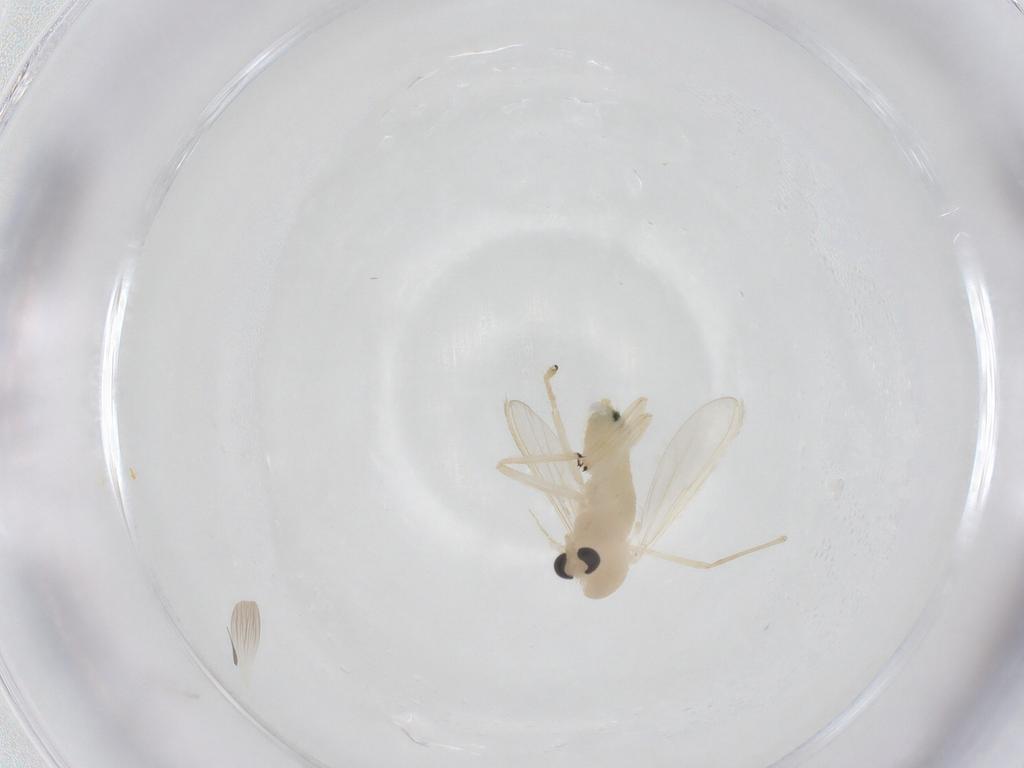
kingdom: Animalia
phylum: Arthropoda
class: Insecta
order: Diptera
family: Chironomidae
